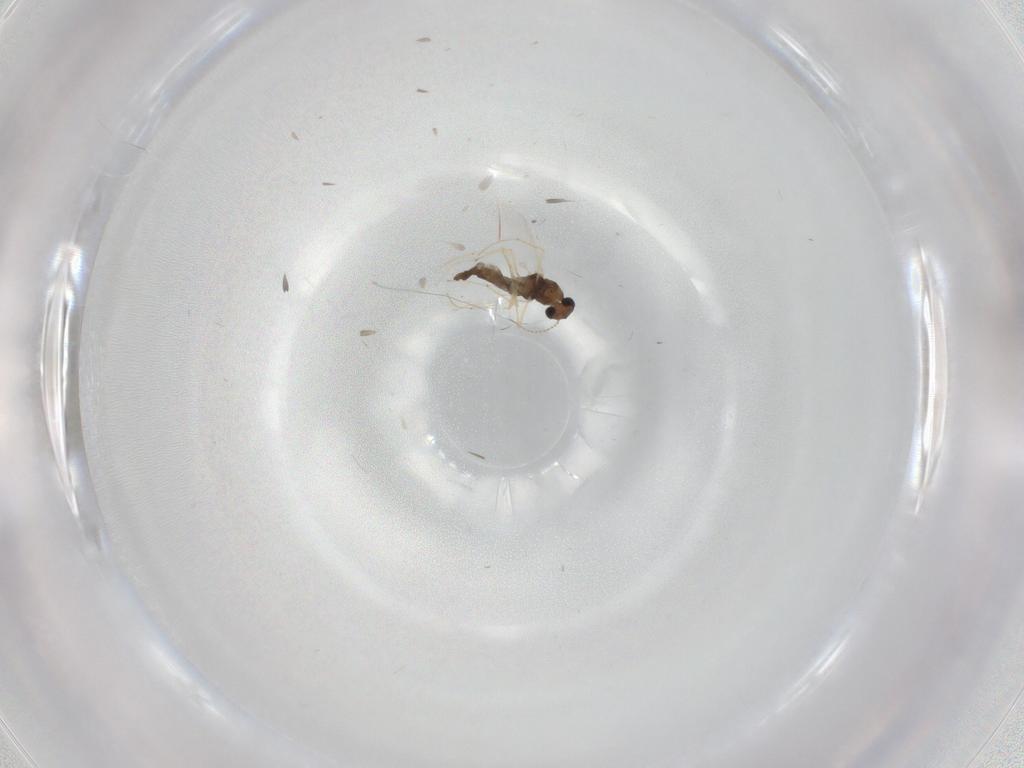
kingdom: Animalia
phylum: Arthropoda
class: Insecta
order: Diptera
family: Chironomidae
